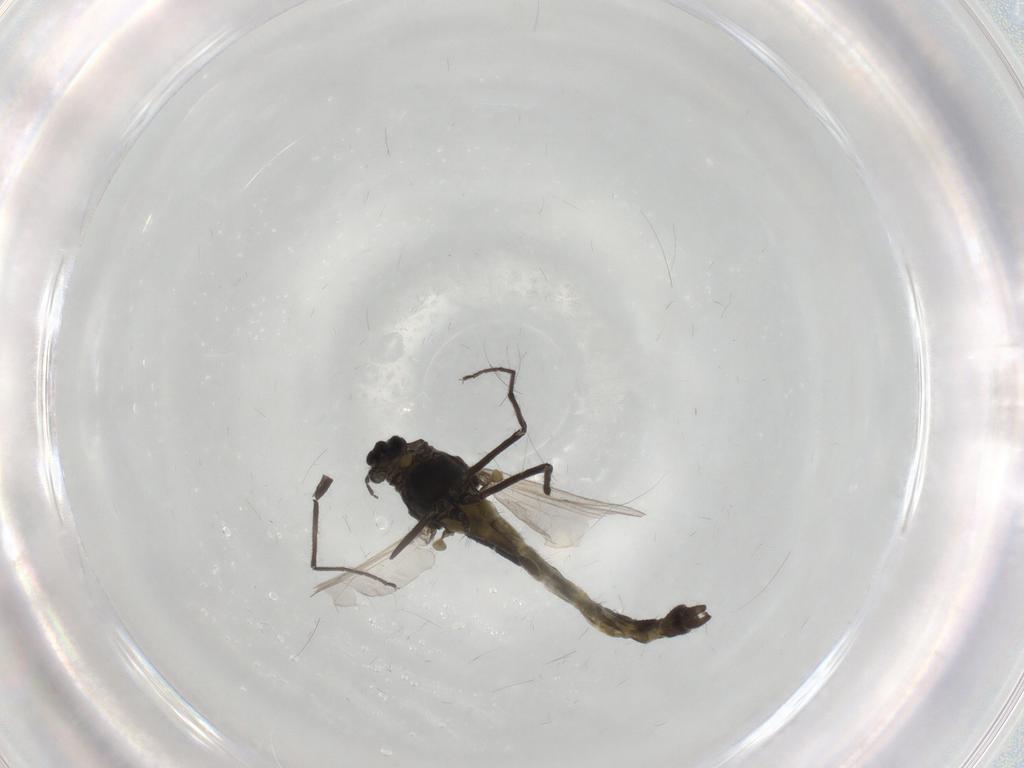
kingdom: Animalia
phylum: Arthropoda
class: Insecta
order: Diptera
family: Chironomidae
